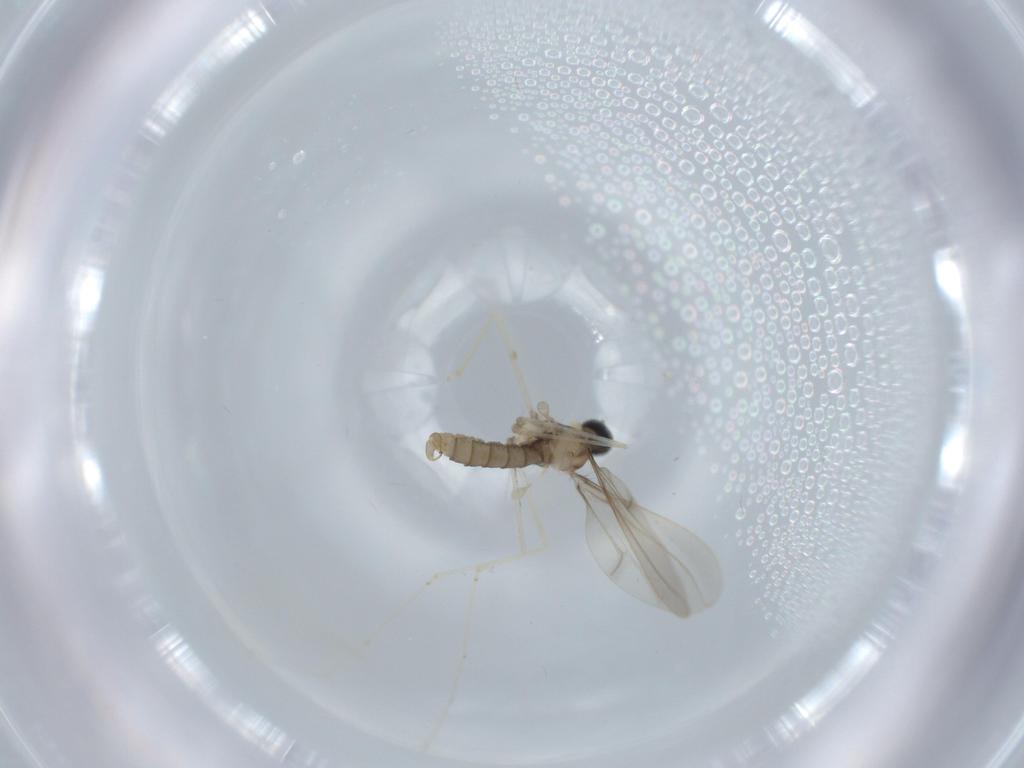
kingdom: Animalia
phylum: Arthropoda
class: Insecta
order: Diptera
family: Cecidomyiidae
